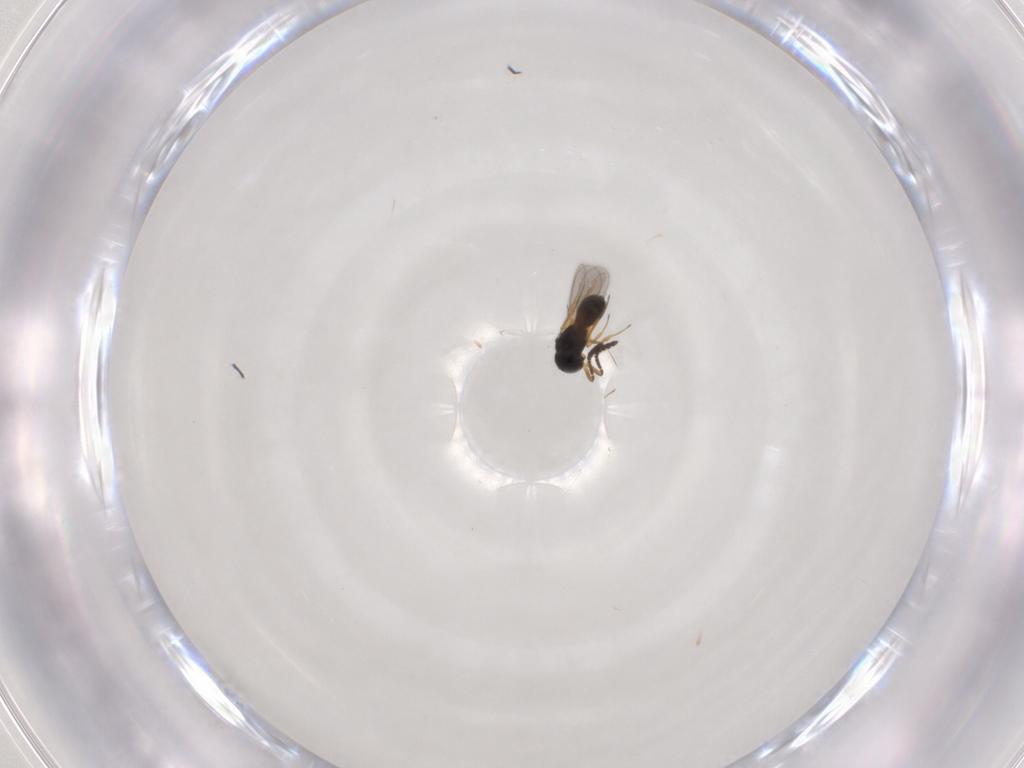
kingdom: Animalia
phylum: Arthropoda
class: Insecta
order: Hymenoptera
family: Scelionidae
